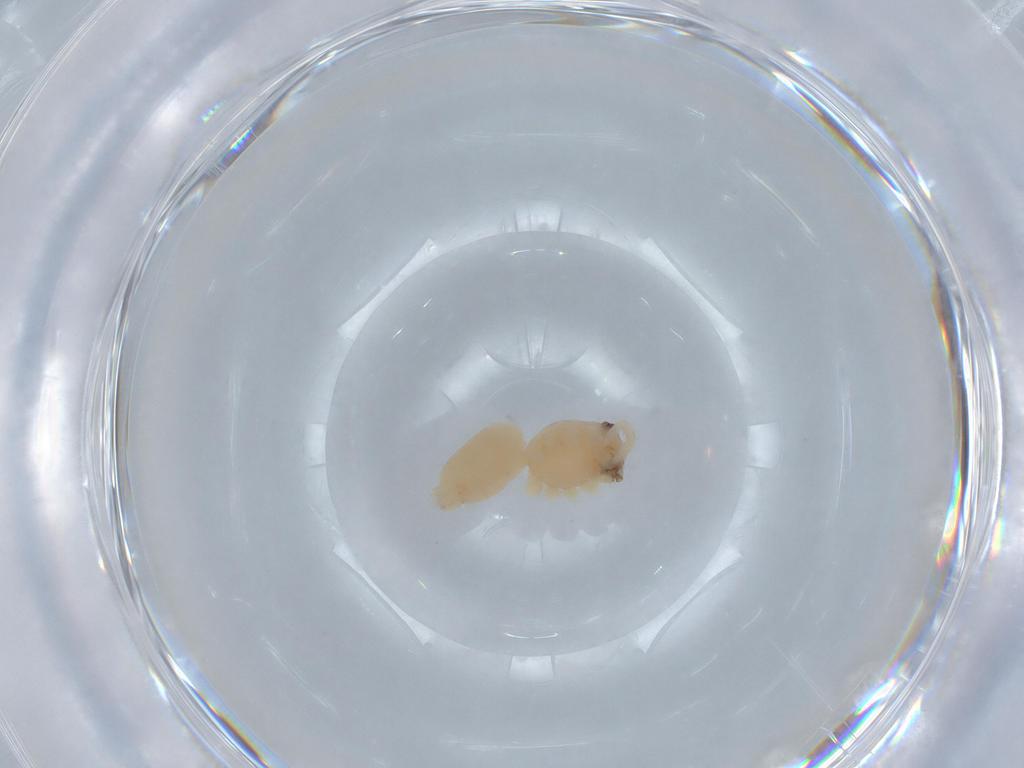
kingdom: Animalia
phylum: Arthropoda
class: Arachnida
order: Araneae
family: Cheiracanthiidae
